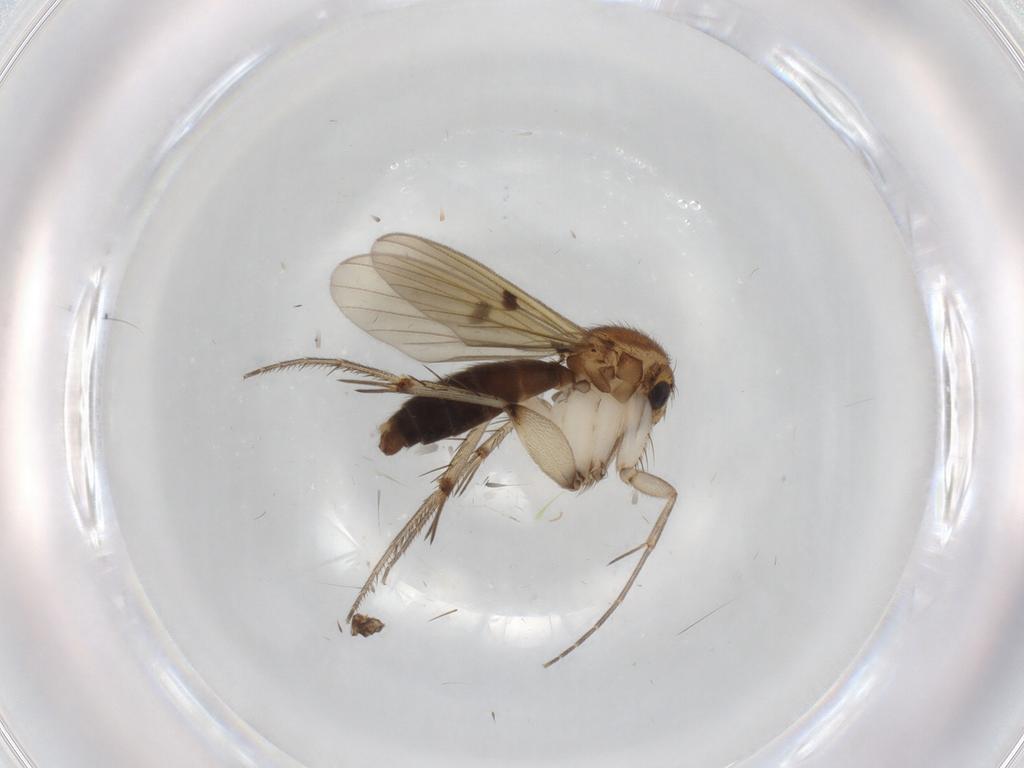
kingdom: Animalia
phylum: Arthropoda
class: Insecta
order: Diptera
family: Mycetophilidae
